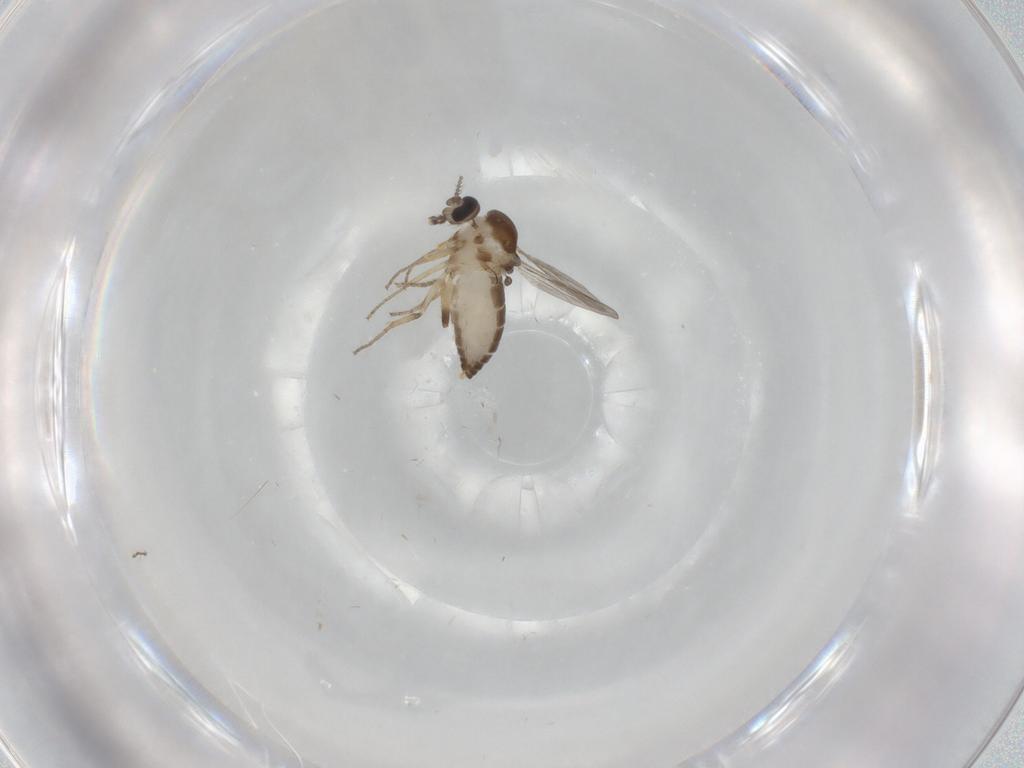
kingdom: Animalia
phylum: Arthropoda
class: Insecta
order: Diptera
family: Ceratopogonidae
